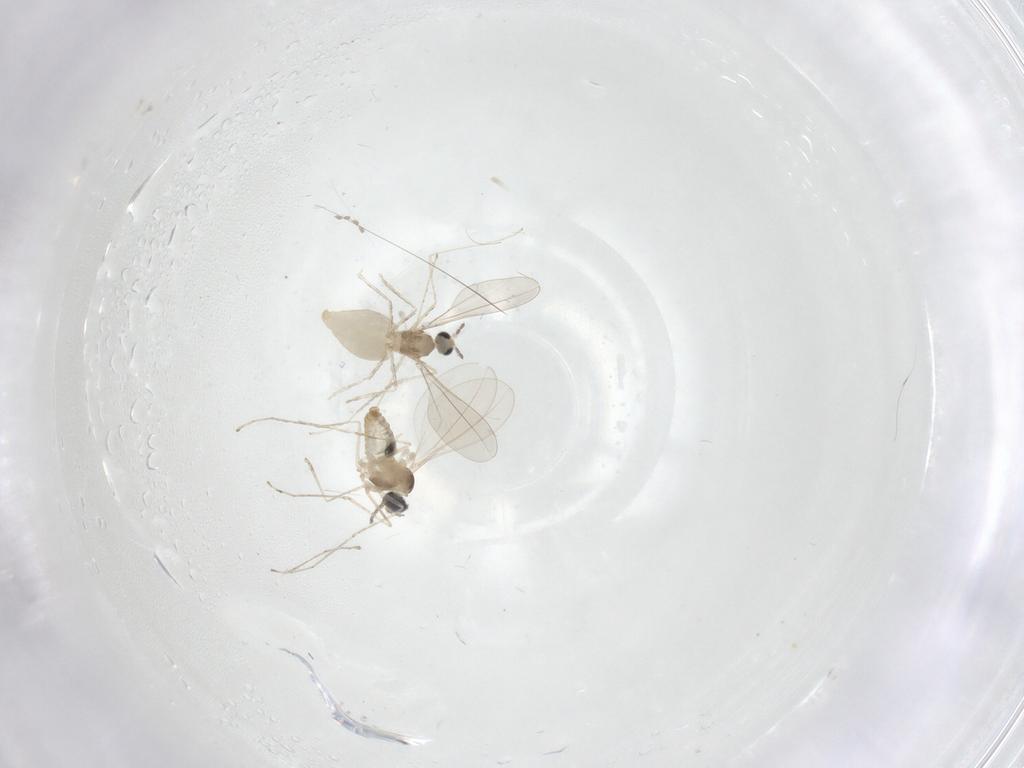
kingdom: Animalia
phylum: Arthropoda
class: Insecta
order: Diptera
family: Cecidomyiidae
